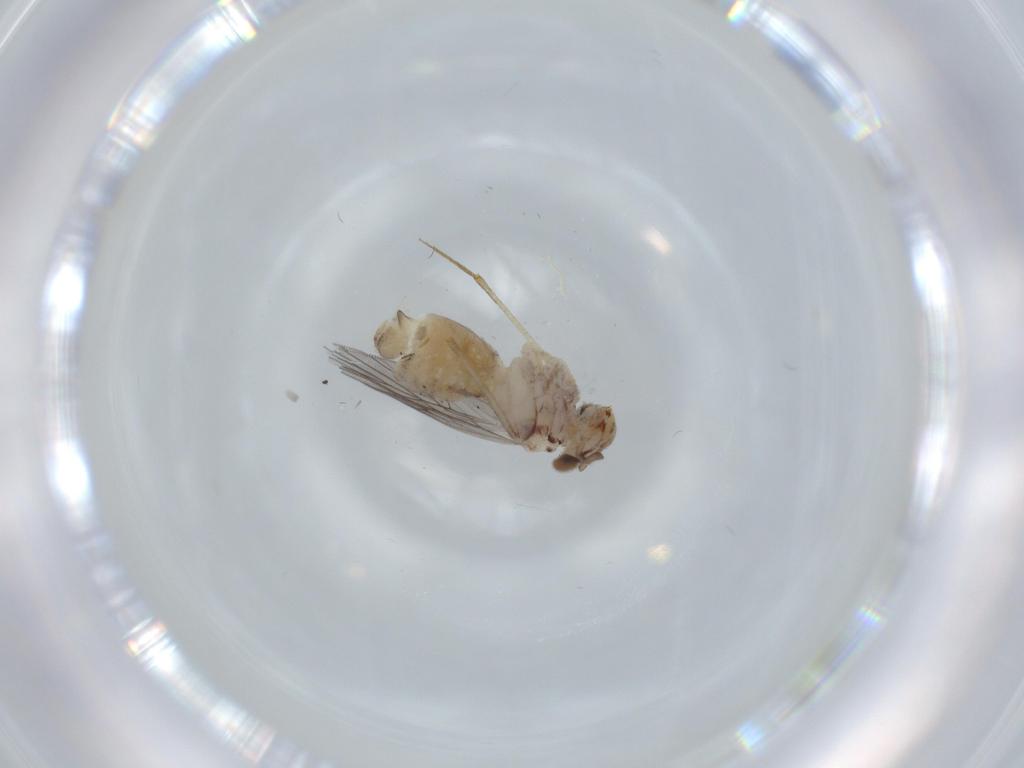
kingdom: Animalia
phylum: Arthropoda
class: Insecta
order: Psocodea
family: Lepidopsocidae
